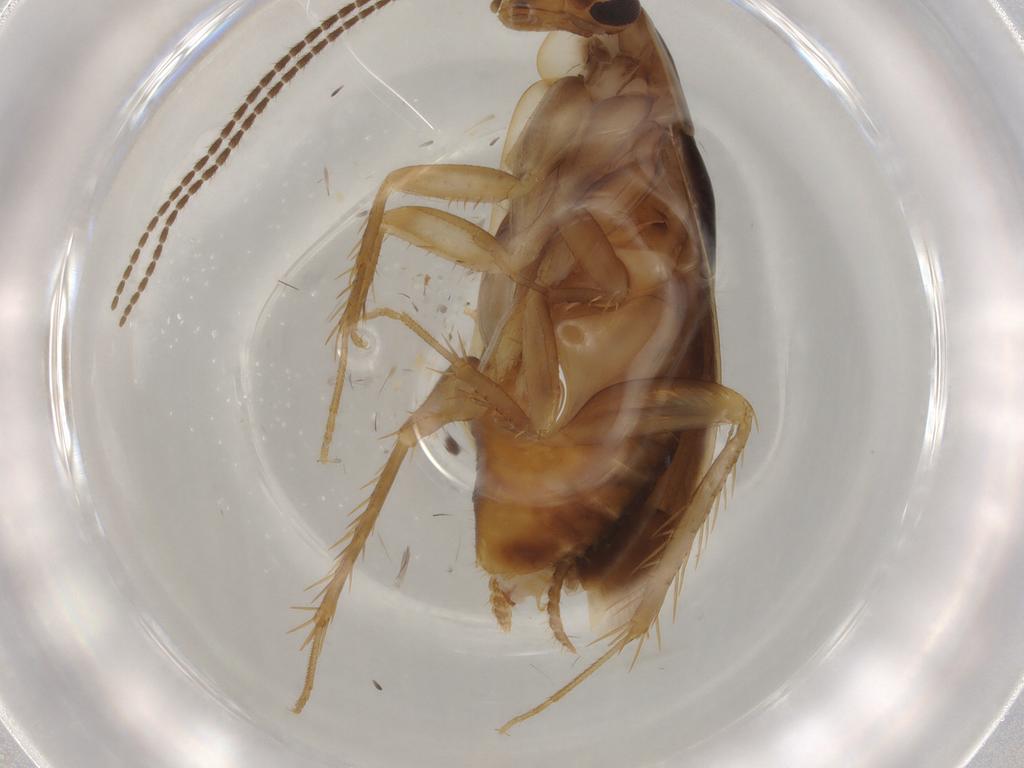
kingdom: Animalia
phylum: Arthropoda
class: Insecta
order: Blattodea
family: Ectobiidae
